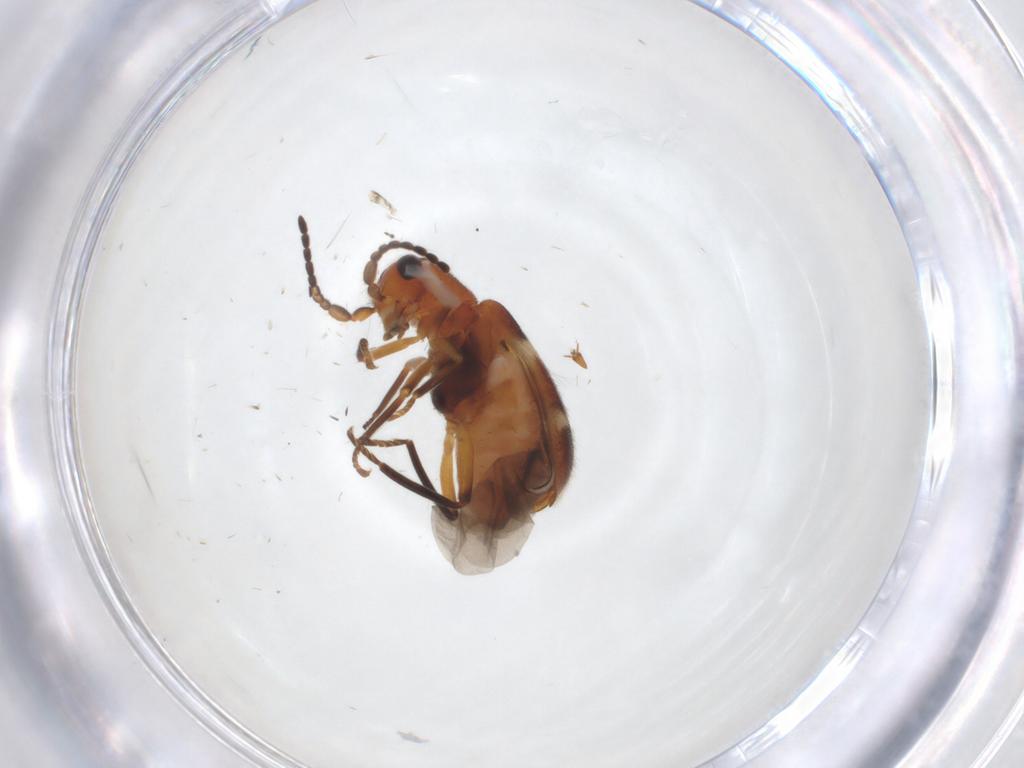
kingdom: Animalia
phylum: Arthropoda
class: Insecta
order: Coleoptera
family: Melyridae
